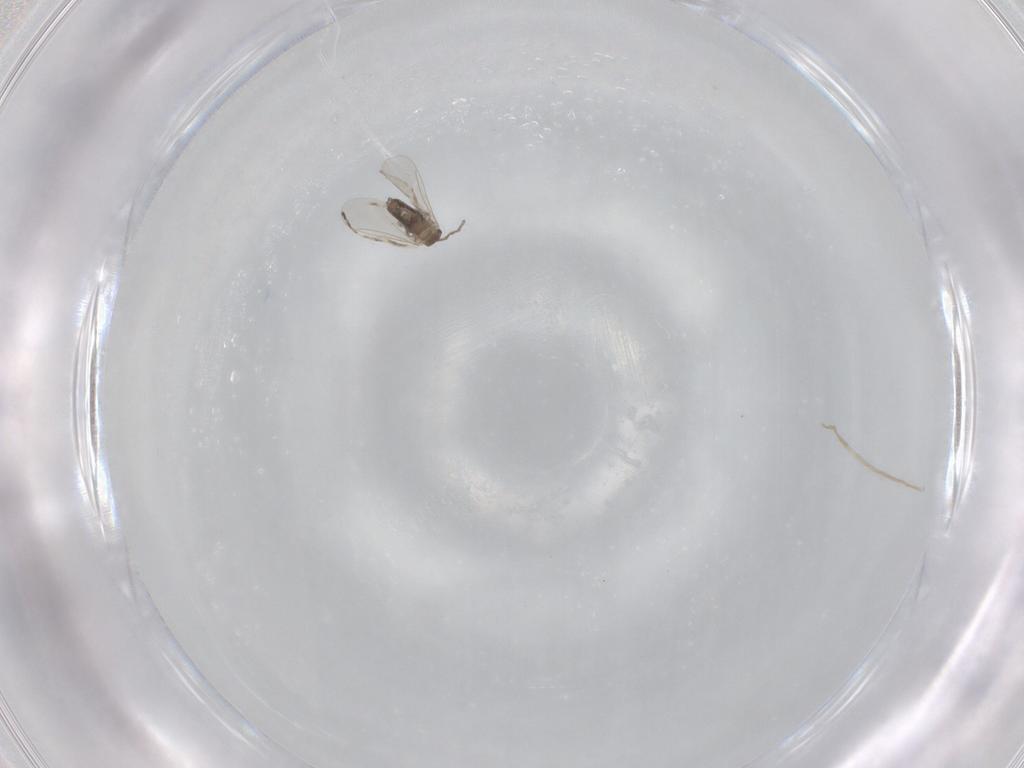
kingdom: Animalia
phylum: Arthropoda
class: Insecta
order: Diptera
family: Cecidomyiidae
